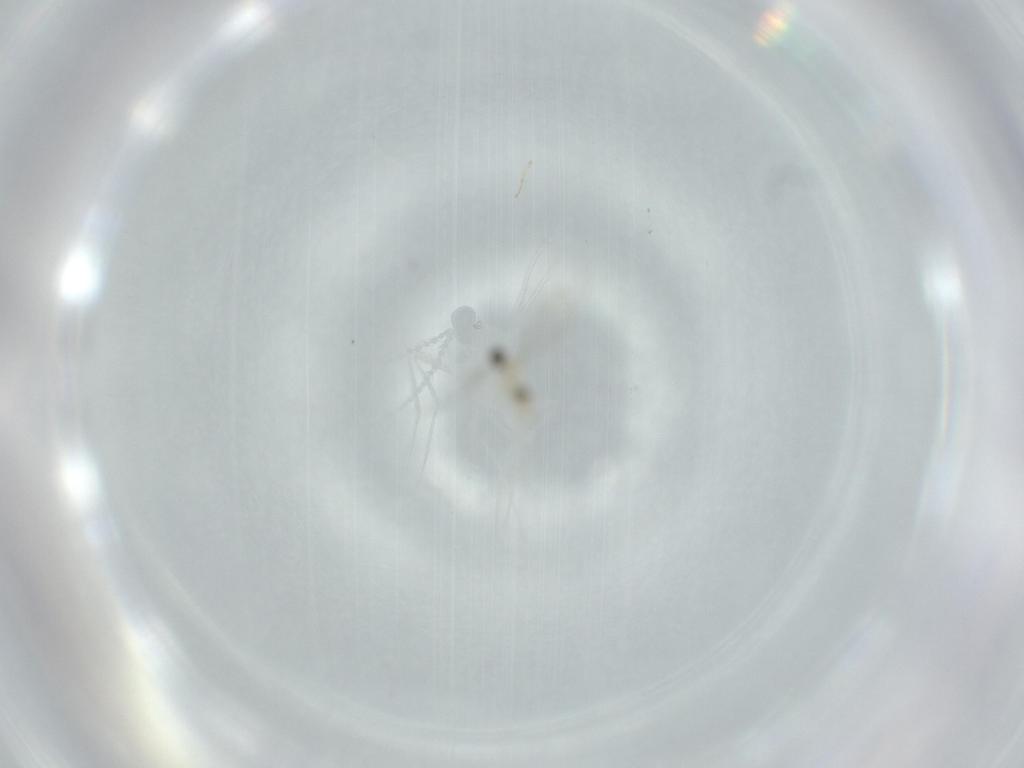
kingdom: Animalia
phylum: Arthropoda
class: Insecta
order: Diptera
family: Cecidomyiidae
